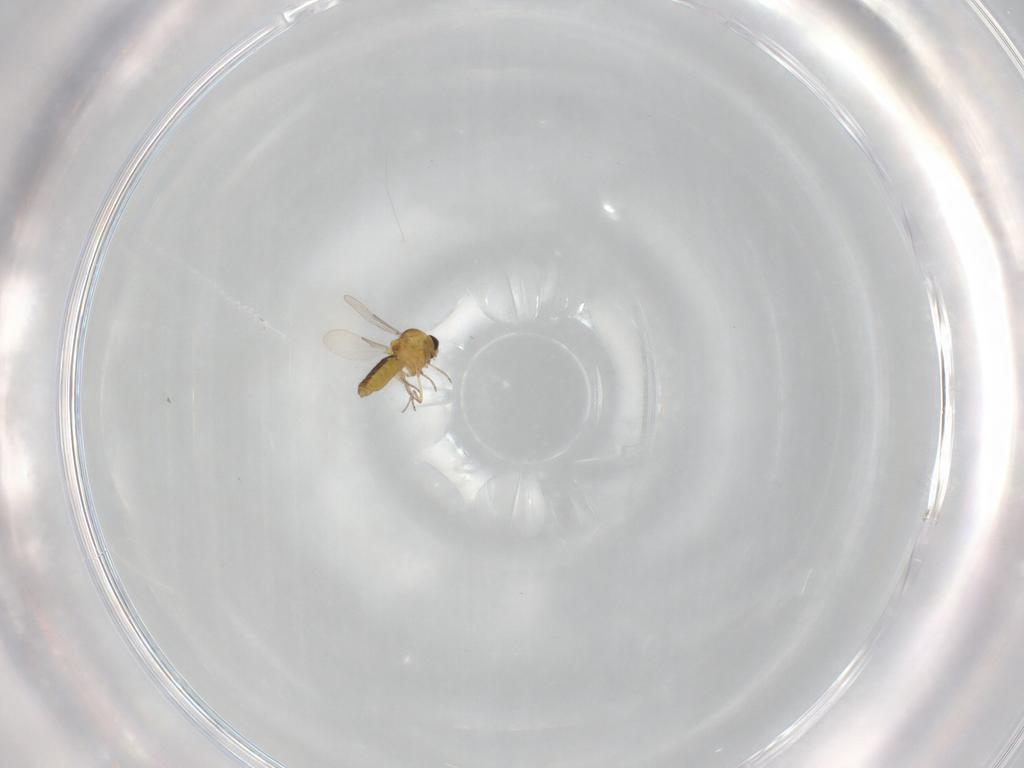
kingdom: Animalia
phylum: Arthropoda
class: Insecta
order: Diptera
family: Ceratopogonidae
